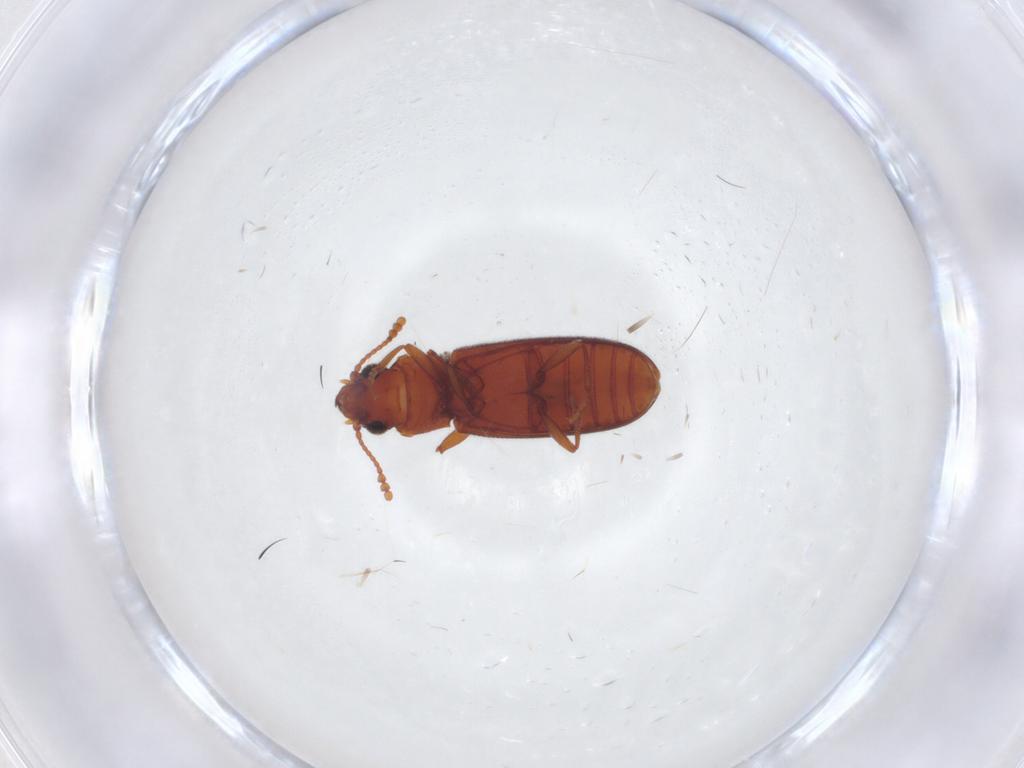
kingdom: Animalia
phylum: Arthropoda
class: Insecta
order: Coleoptera
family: Cryptophagidae
